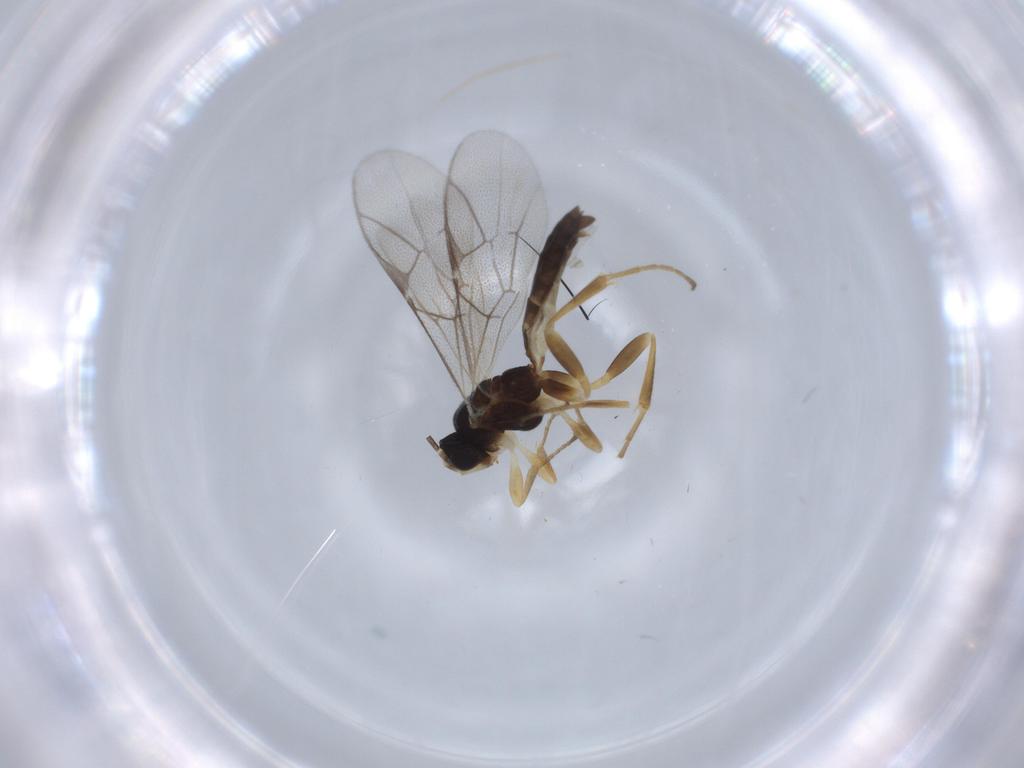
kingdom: Animalia
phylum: Arthropoda
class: Insecta
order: Hymenoptera
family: Ichneumonidae
